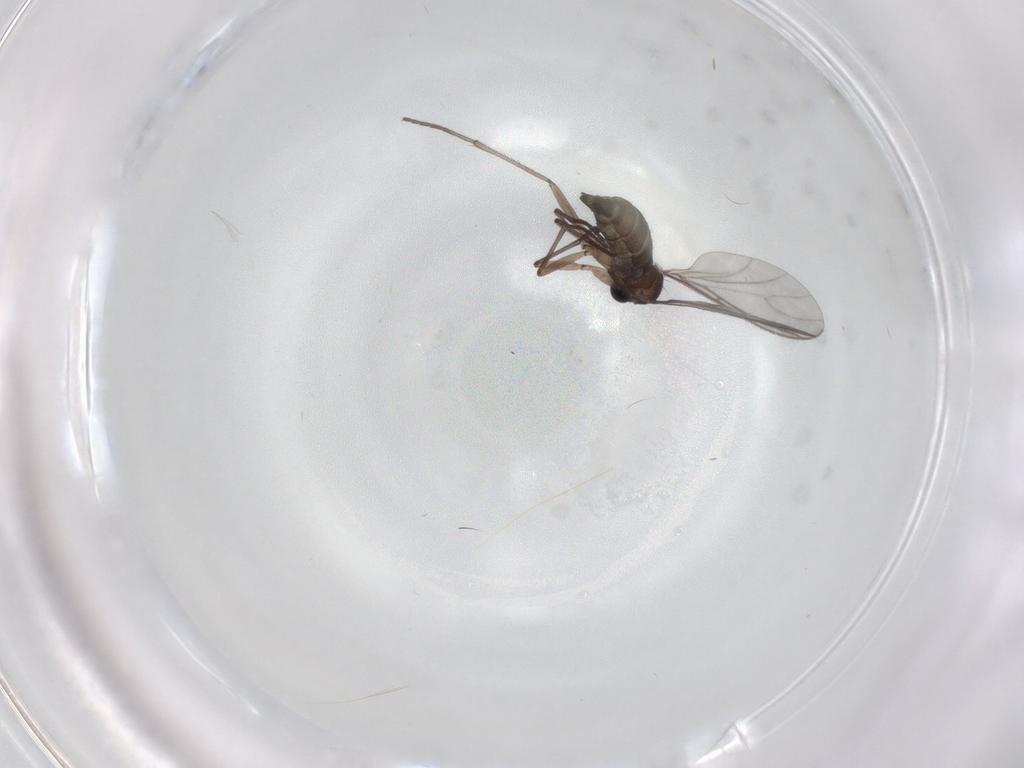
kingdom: Animalia
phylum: Arthropoda
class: Insecta
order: Diptera
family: Sciaridae
